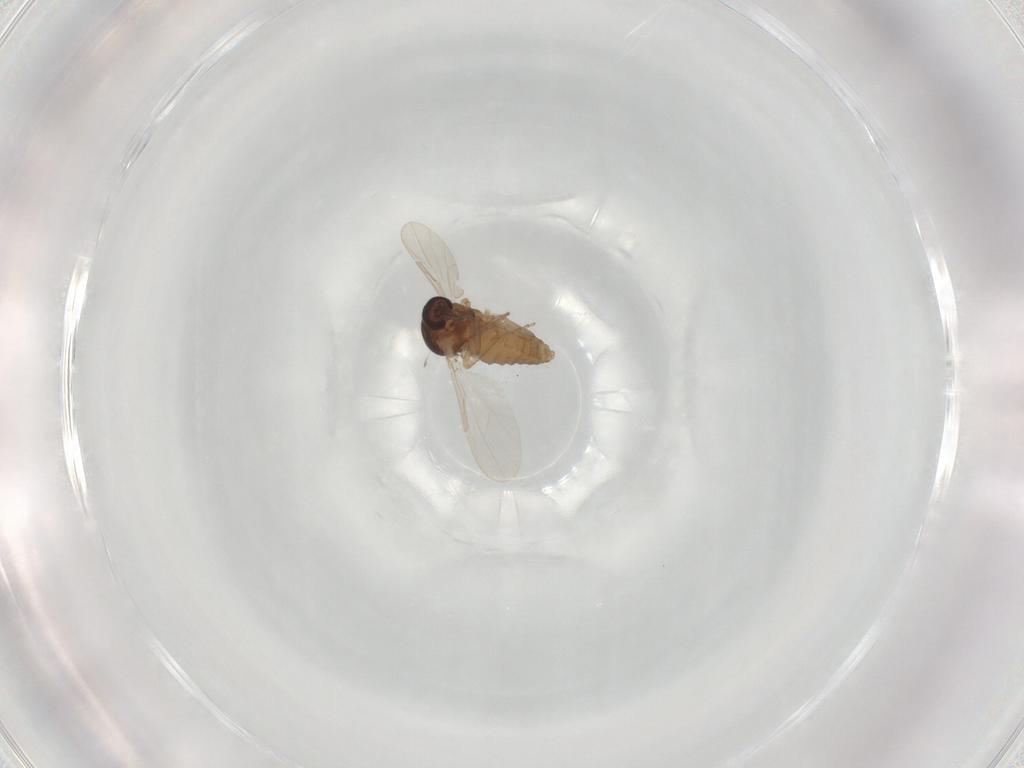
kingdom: Animalia
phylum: Arthropoda
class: Insecta
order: Diptera
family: Ceratopogonidae
